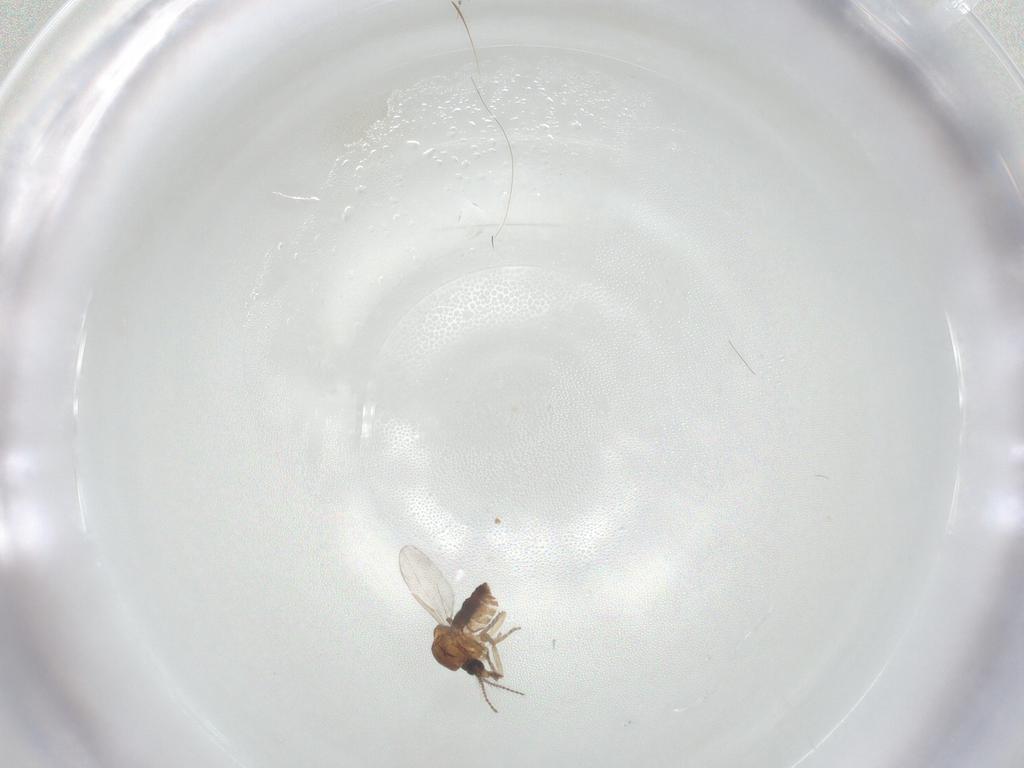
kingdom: Animalia
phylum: Arthropoda
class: Insecta
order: Diptera
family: Ceratopogonidae
